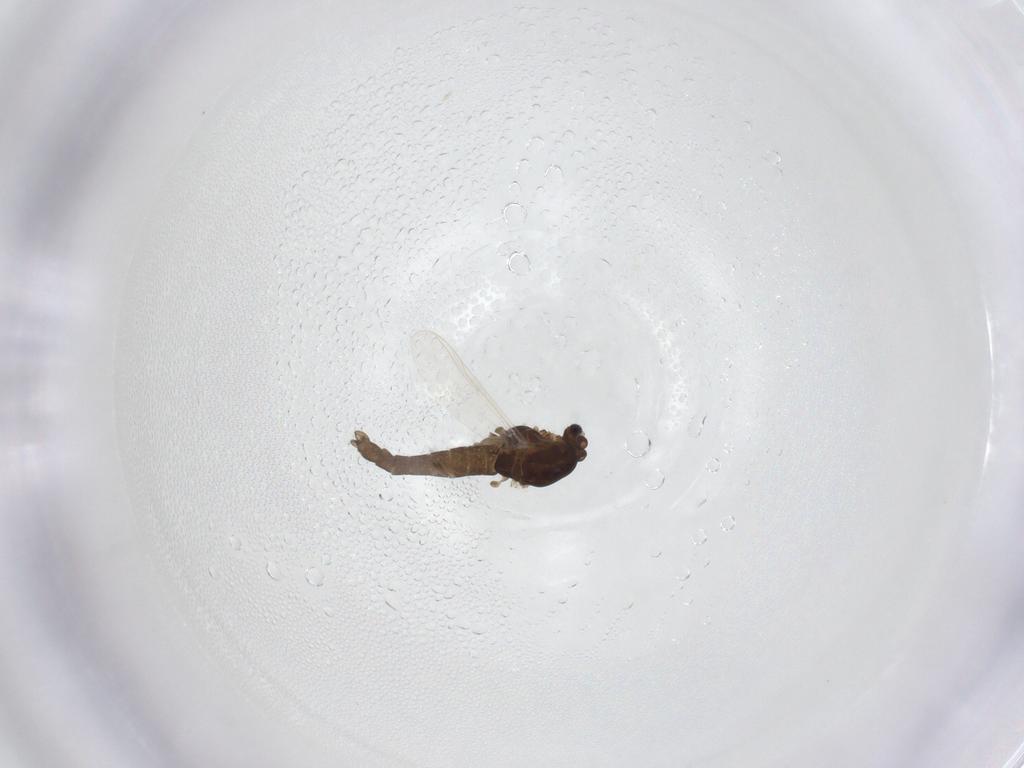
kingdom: Animalia
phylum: Arthropoda
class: Insecta
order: Diptera
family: Chironomidae
